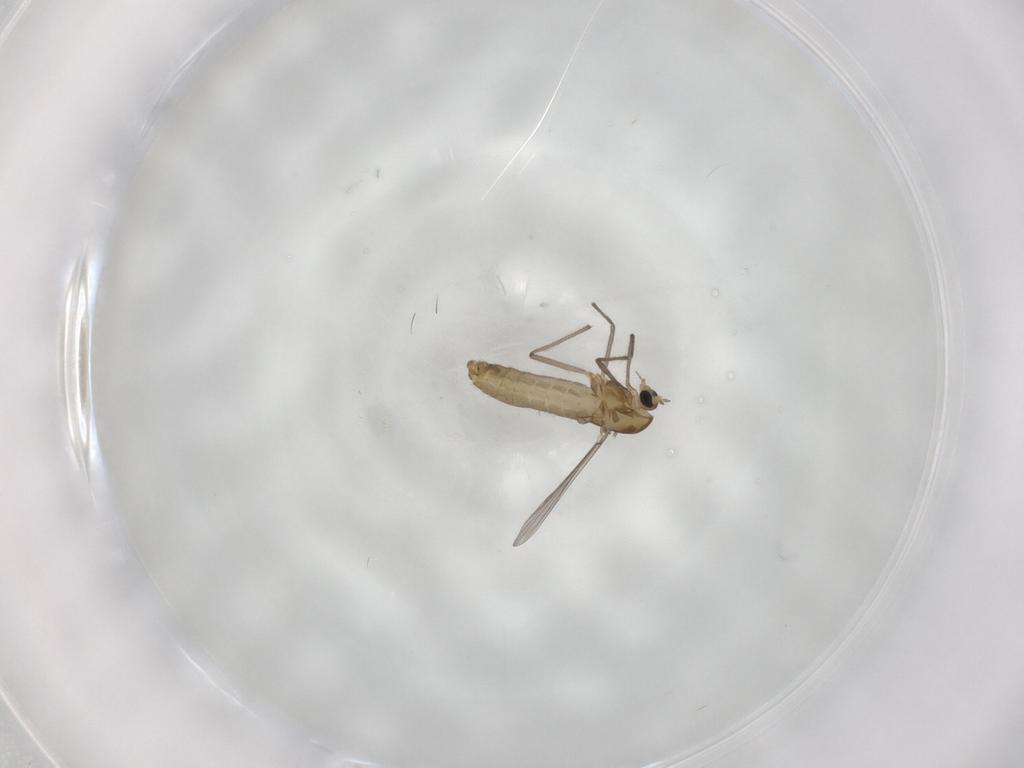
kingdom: Animalia
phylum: Arthropoda
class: Insecta
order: Diptera
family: Chironomidae
